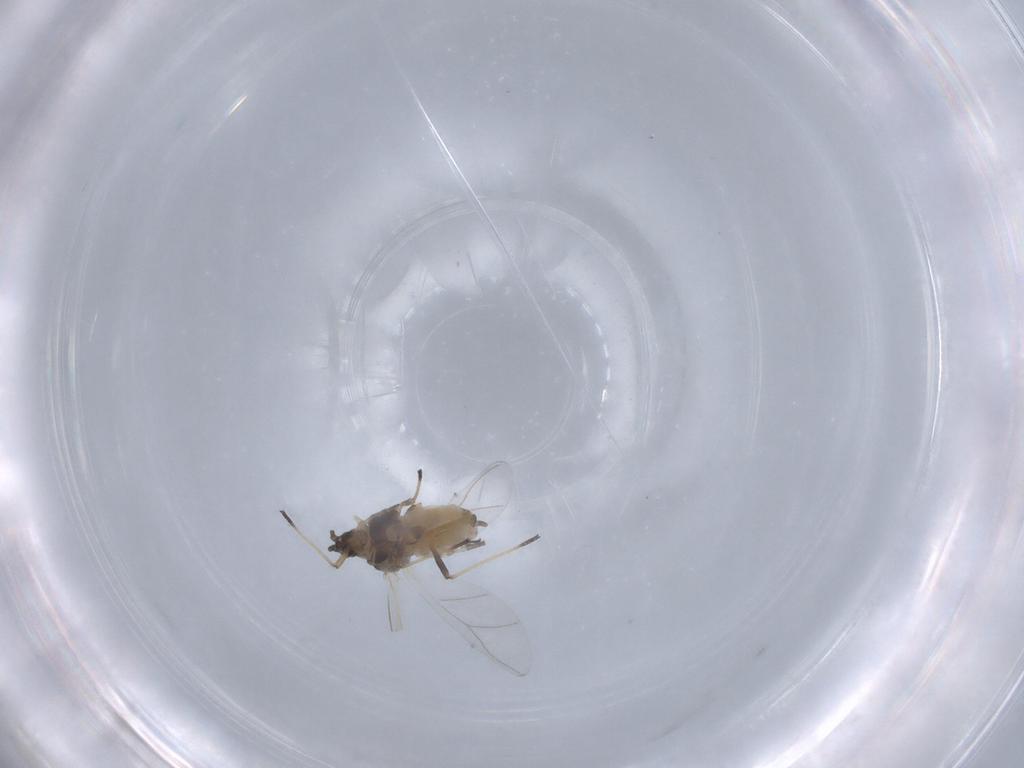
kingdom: Animalia
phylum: Arthropoda
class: Insecta
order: Hemiptera
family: Aphididae
